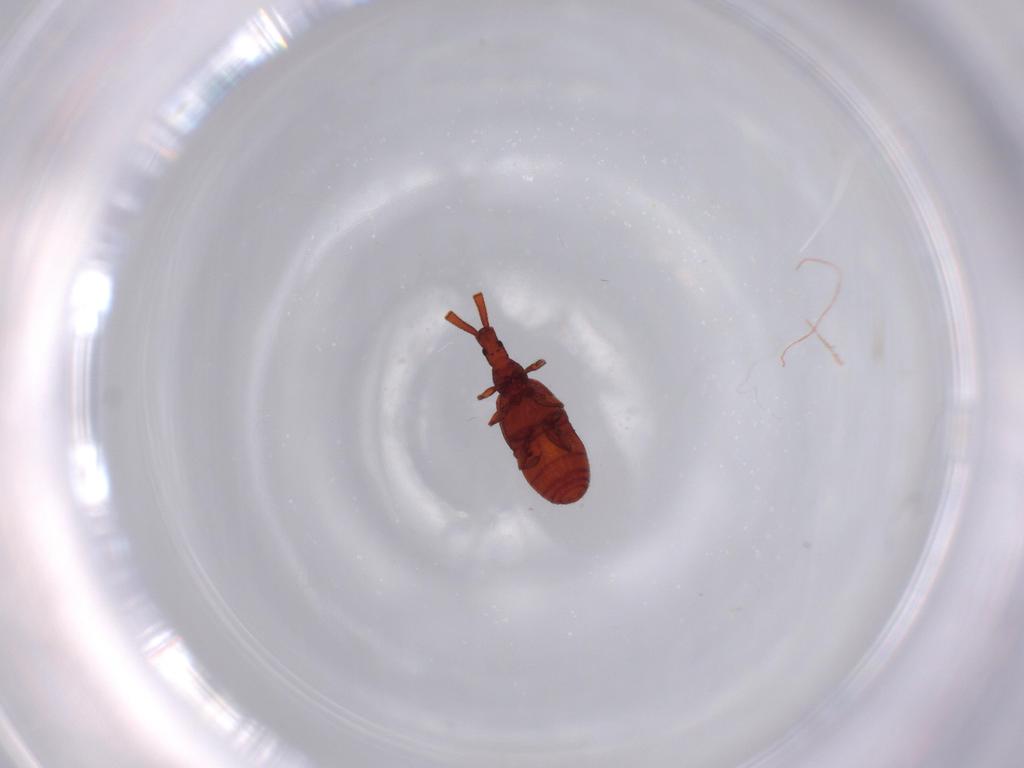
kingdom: Animalia
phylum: Arthropoda
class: Insecta
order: Coleoptera
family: Staphylinidae
